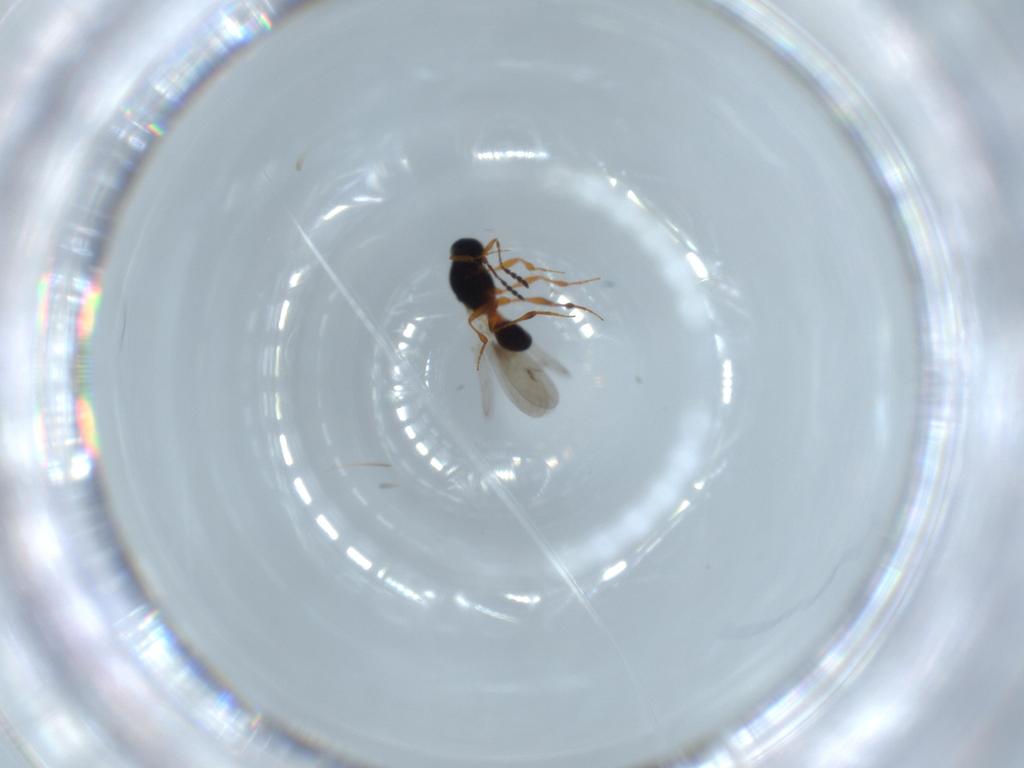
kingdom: Animalia
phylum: Arthropoda
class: Insecta
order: Hymenoptera
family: Platygastridae
